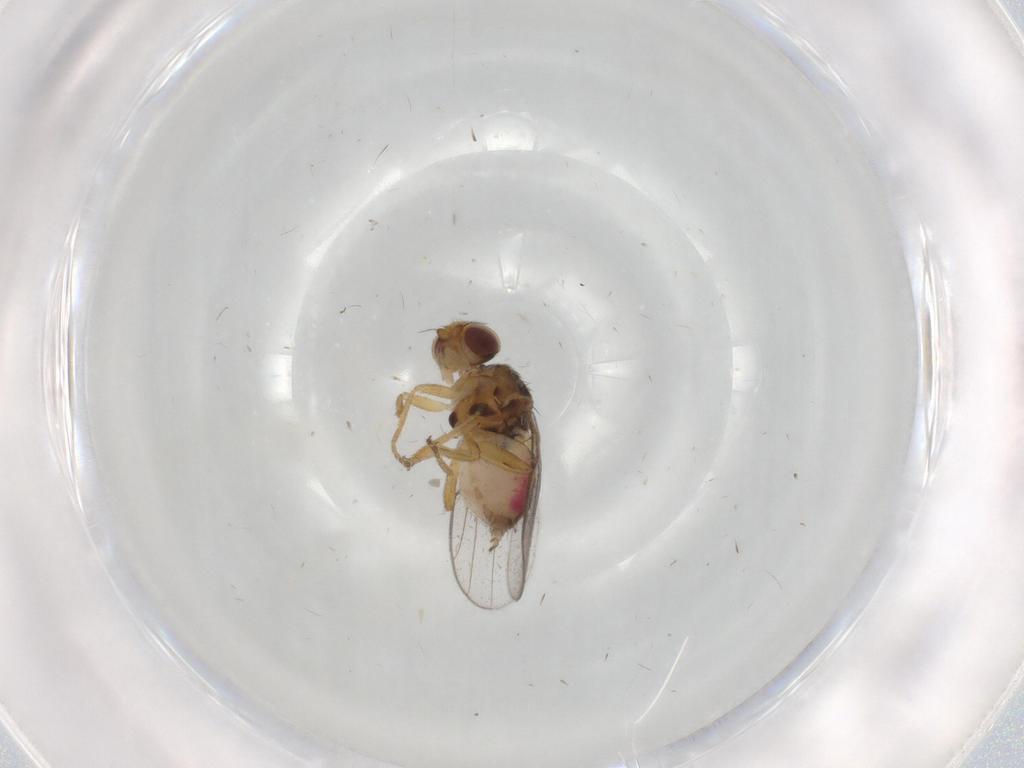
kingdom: Animalia
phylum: Arthropoda
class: Insecta
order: Diptera
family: Chloropidae
